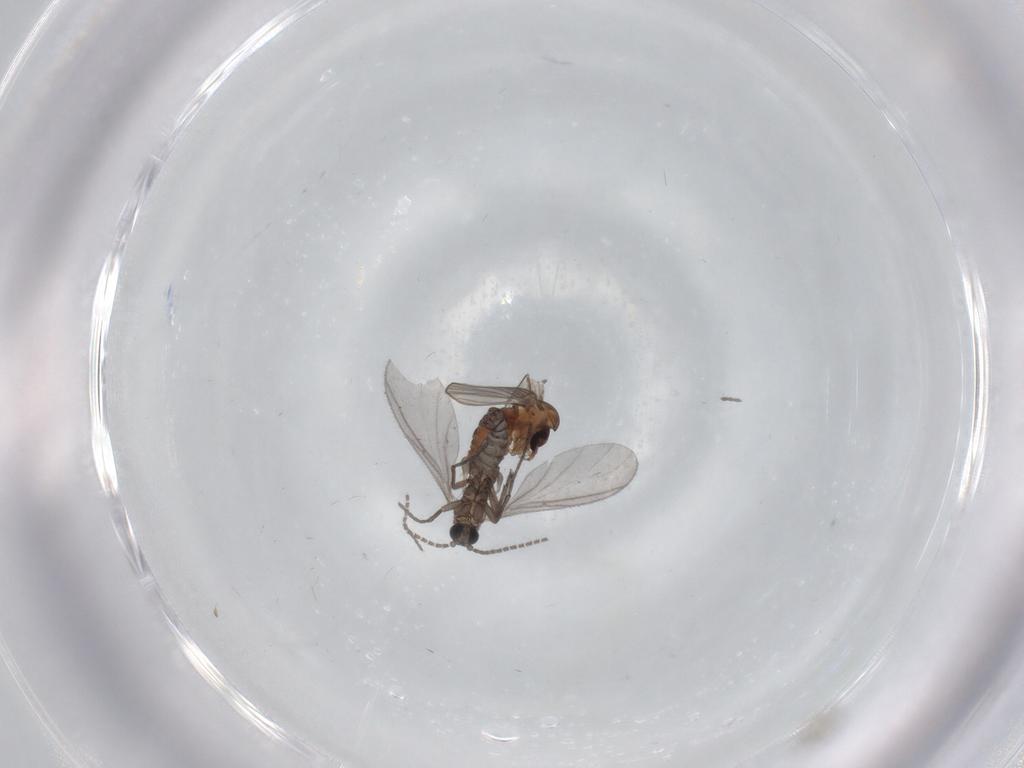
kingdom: Animalia
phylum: Arthropoda
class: Insecta
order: Diptera
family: Sciaridae
